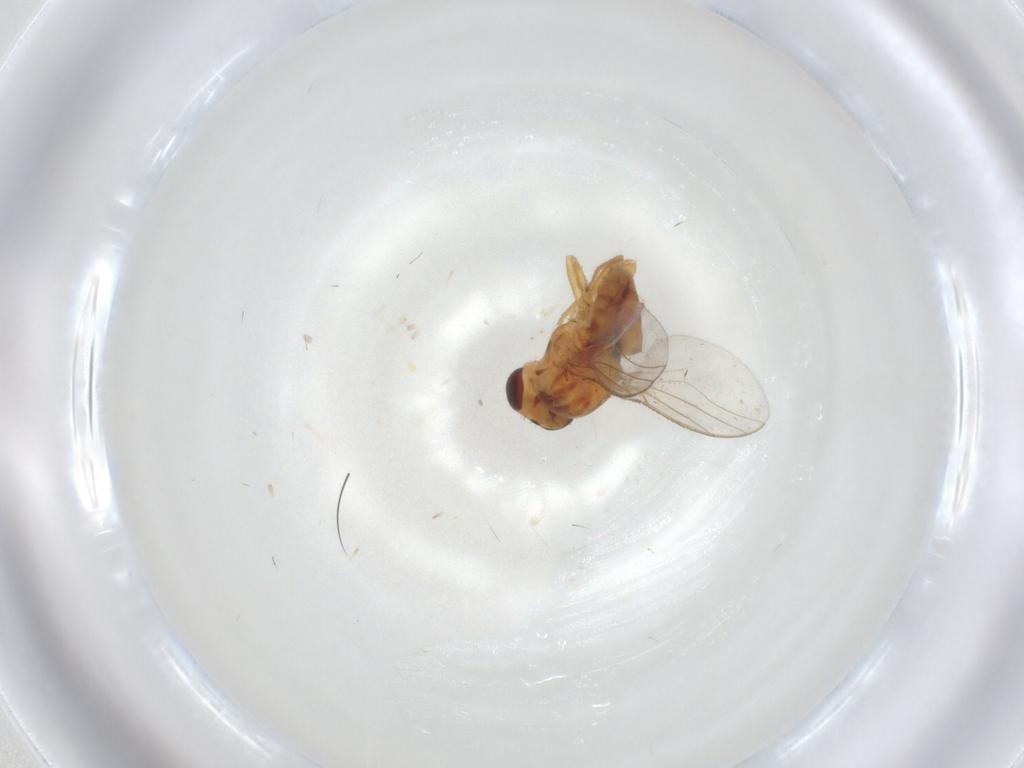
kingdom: Animalia
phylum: Arthropoda
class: Insecta
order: Diptera
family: Chloropidae
